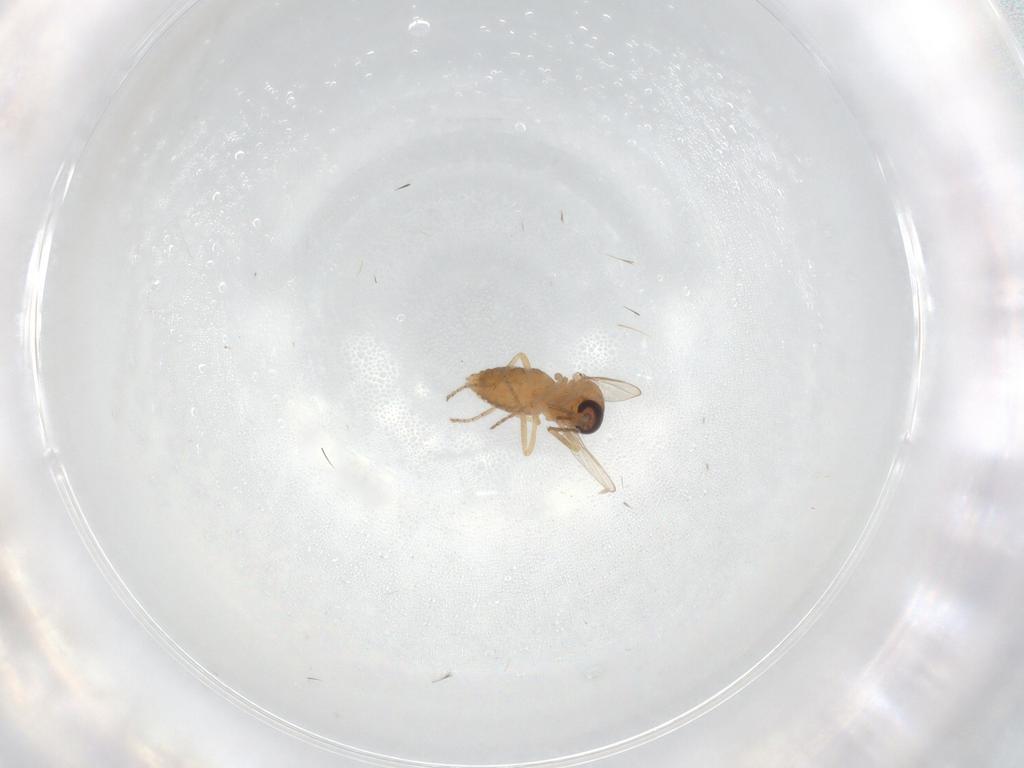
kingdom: Animalia
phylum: Arthropoda
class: Insecta
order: Diptera
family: Ceratopogonidae
